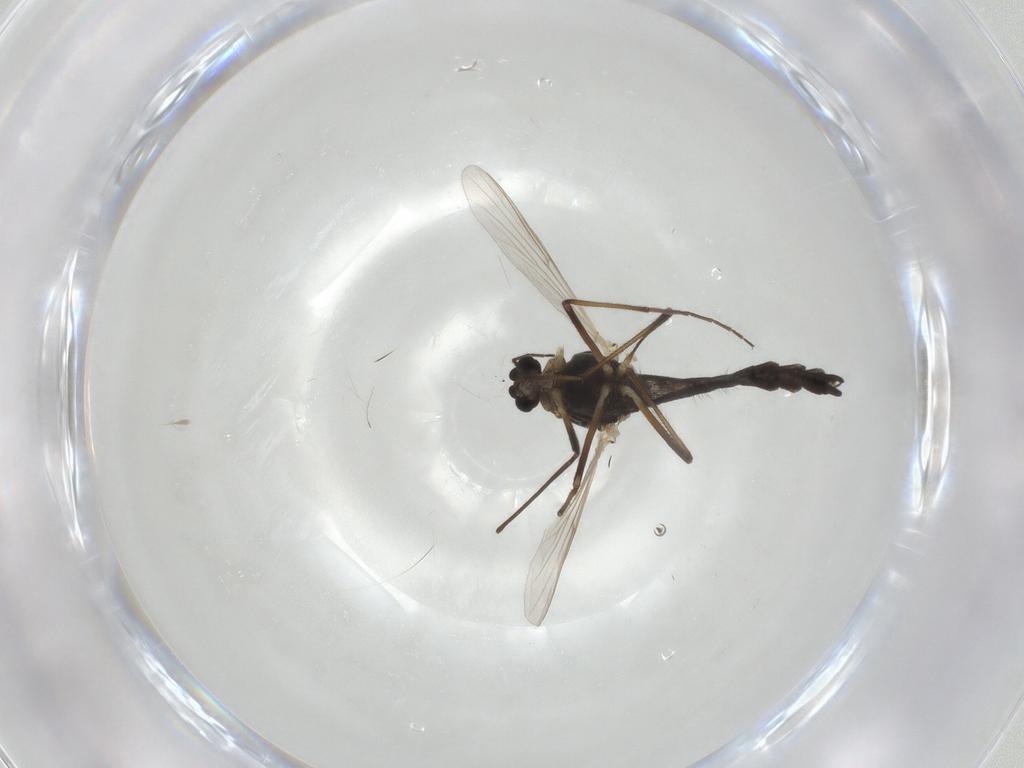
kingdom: Animalia
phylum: Arthropoda
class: Insecta
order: Diptera
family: Chironomidae
